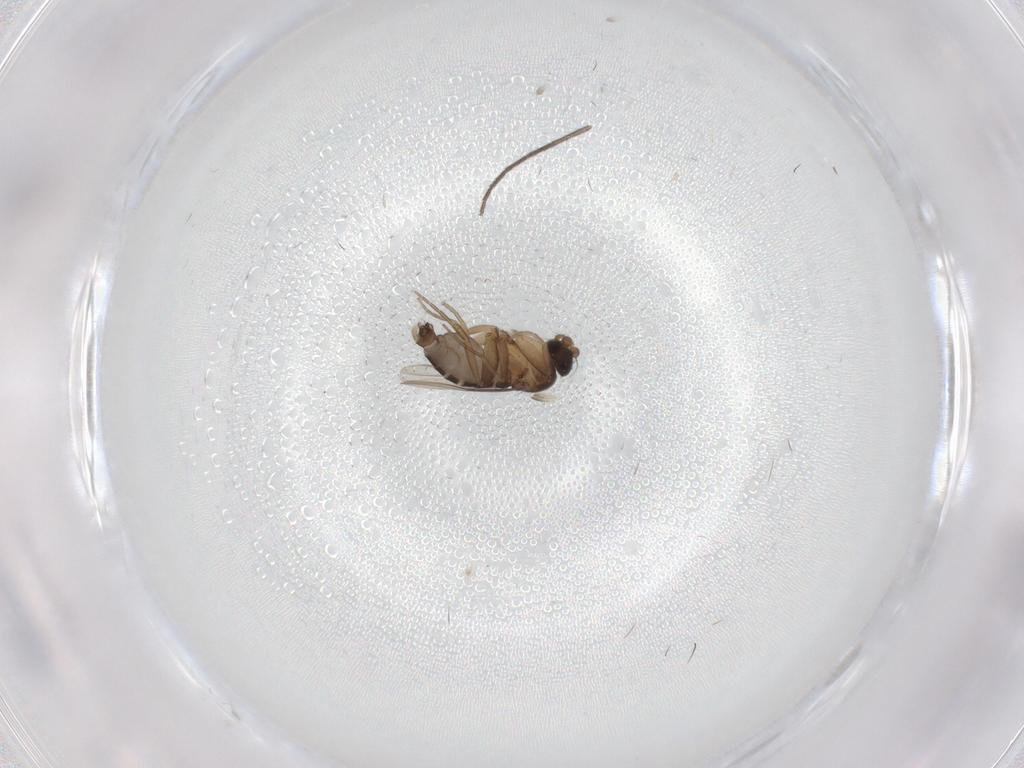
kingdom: Animalia
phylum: Arthropoda
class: Insecta
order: Diptera
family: Phoridae
